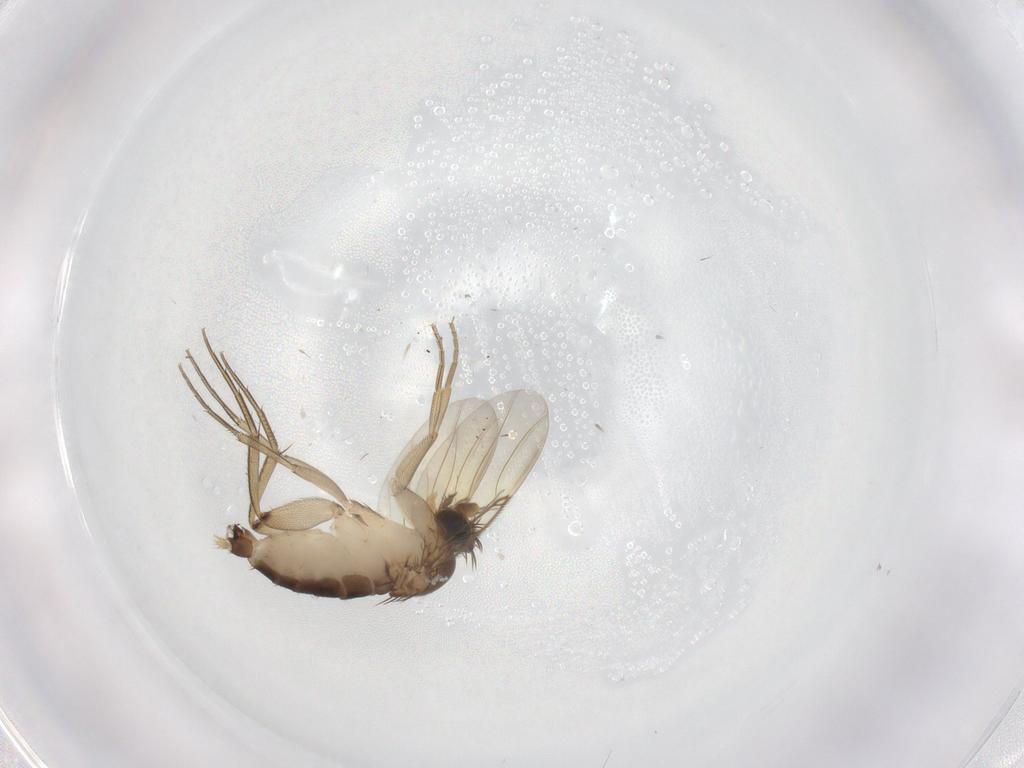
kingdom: Animalia
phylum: Arthropoda
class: Insecta
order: Diptera
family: Phoridae
